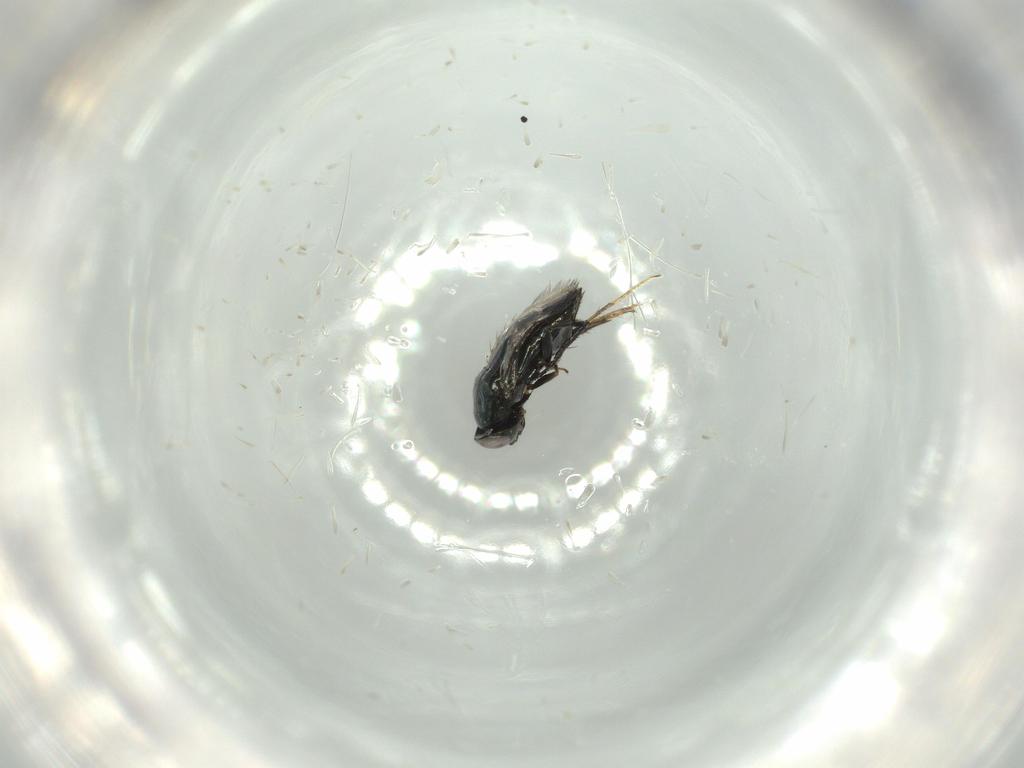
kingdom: Animalia
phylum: Arthropoda
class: Insecta
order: Hymenoptera
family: Signiphoridae
